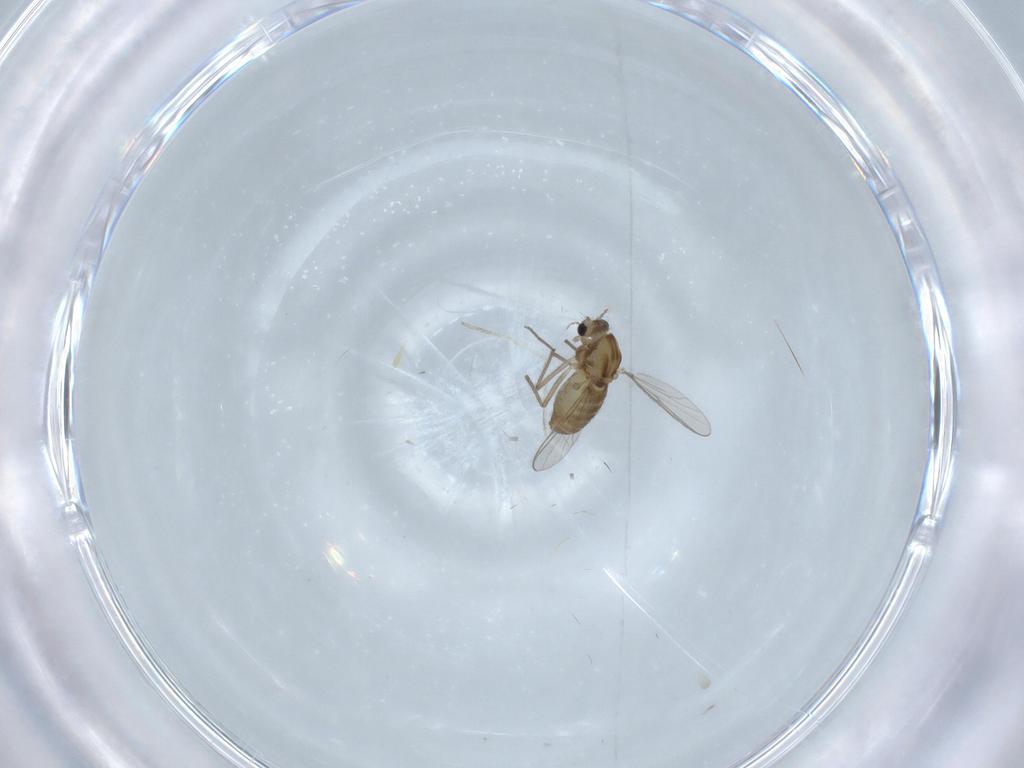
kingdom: Animalia
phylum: Arthropoda
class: Insecta
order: Diptera
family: Chironomidae
